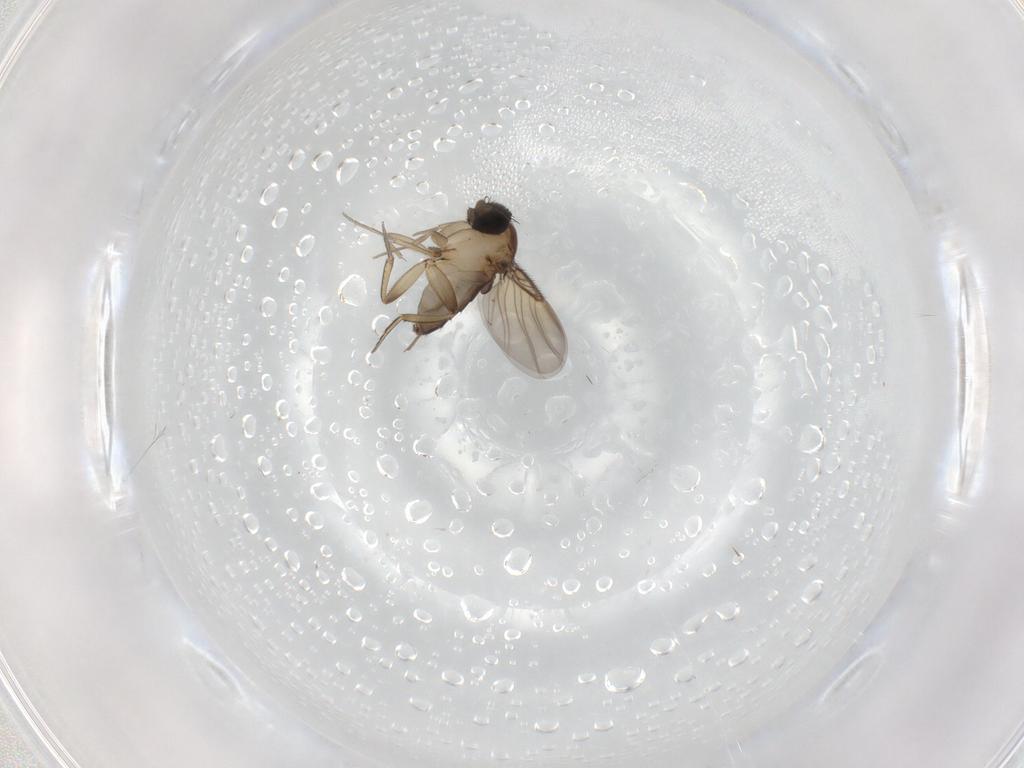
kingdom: Animalia
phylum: Arthropoda
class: Insecta
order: Diptera
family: Phoridae
